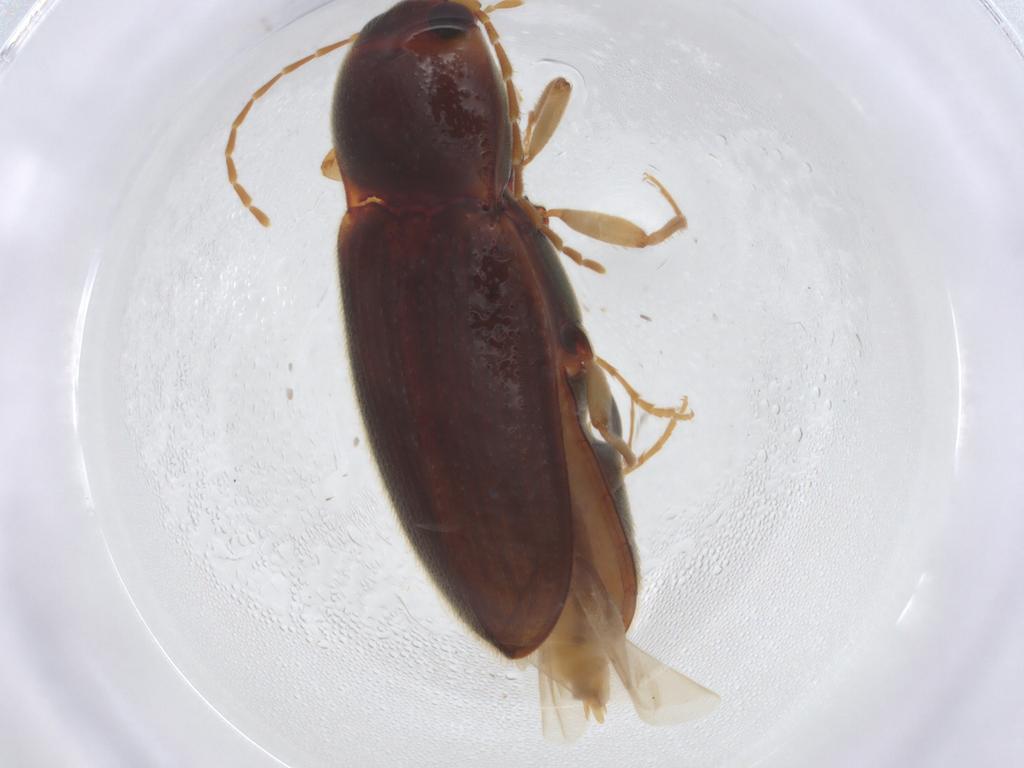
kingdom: Animalia
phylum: Arthropoda
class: Insecta
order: Coleoptera
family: Elateridae
